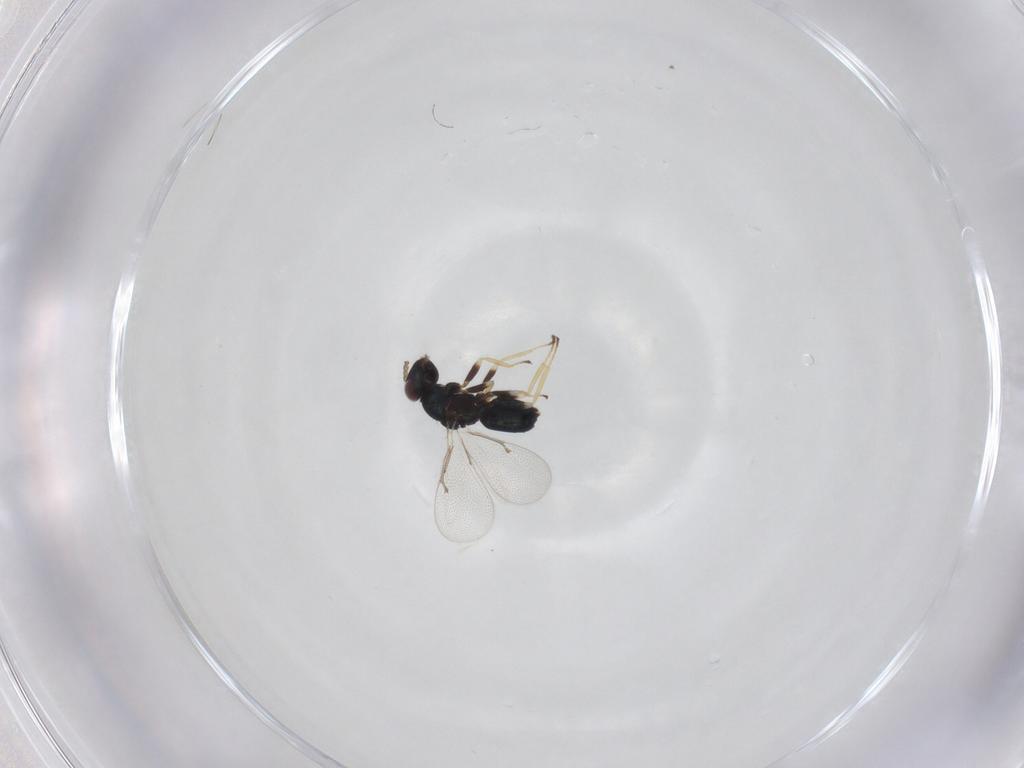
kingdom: Animalia
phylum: Arthropoda
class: Insecta
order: Hymenoptera
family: Eulophidae
